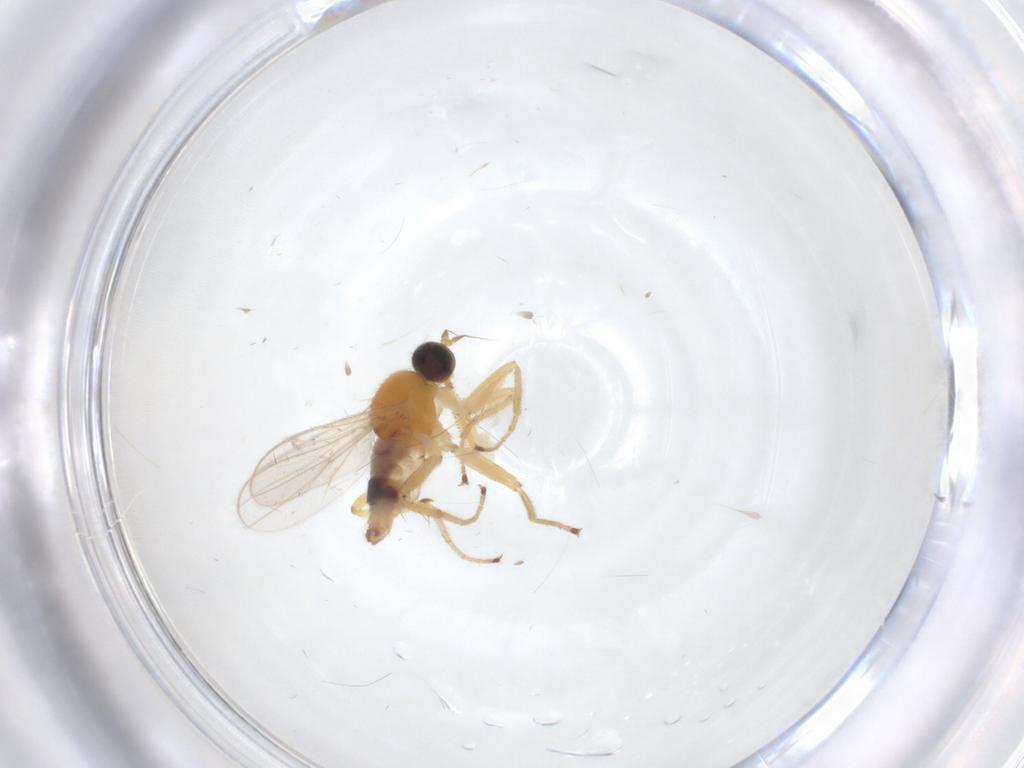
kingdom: Animalia
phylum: Arthropoda
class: Insecta
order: Diptera
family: Hybotidae
